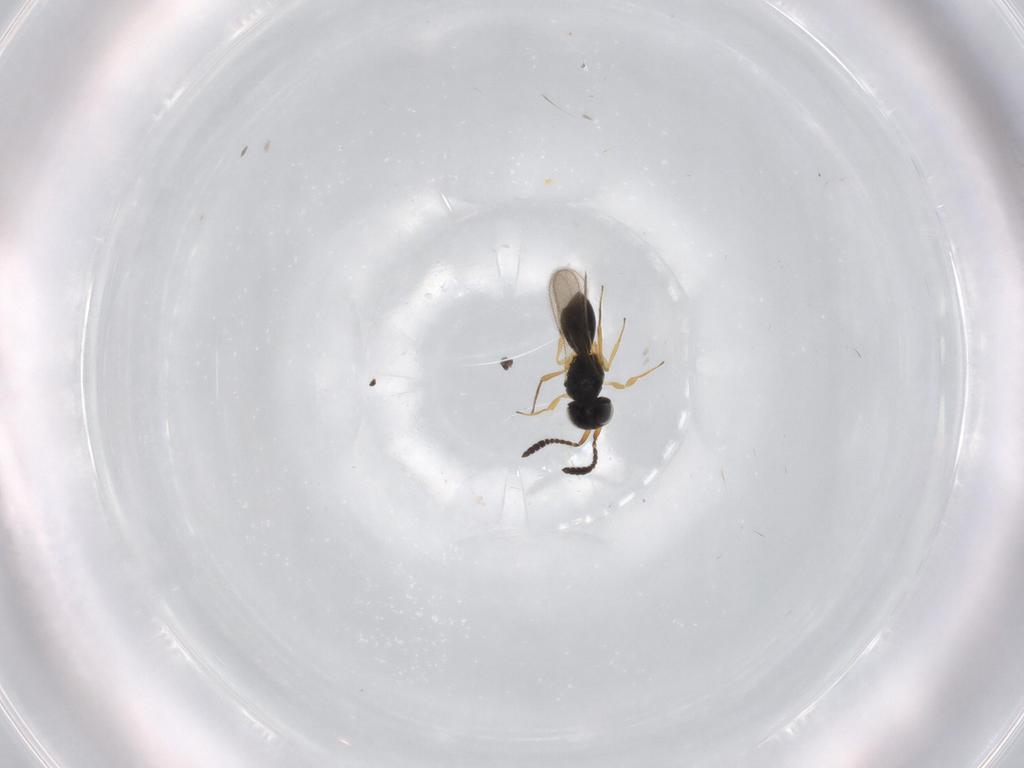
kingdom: Animalia
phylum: Arthropoda
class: Insecta
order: Hymenoptera
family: Scelionidae
